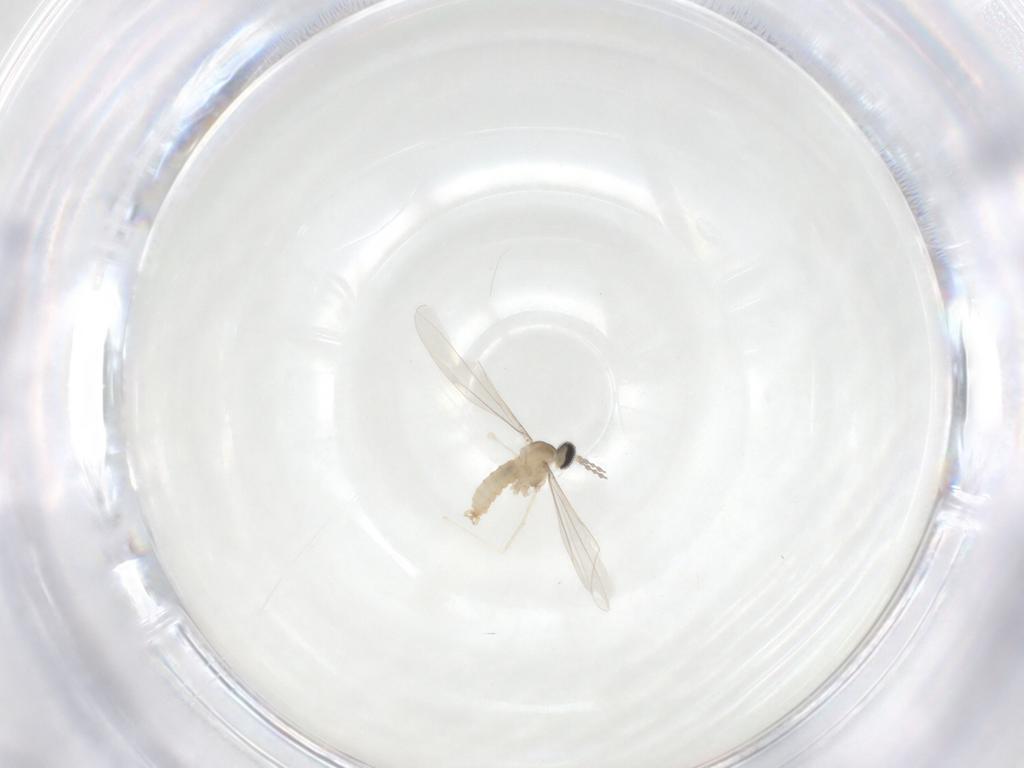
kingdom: Animalia
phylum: Arthropoda
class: Insecta
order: Diptera
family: Cecidomyiidae
